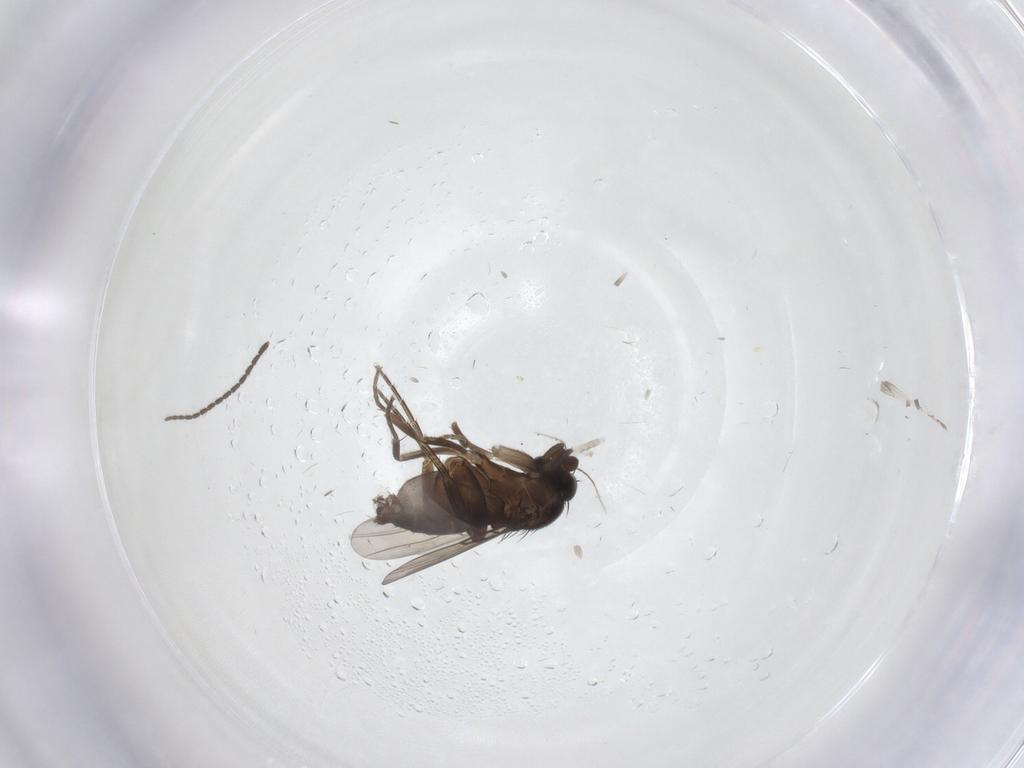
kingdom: Animalia
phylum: Arthropoda
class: Insecta
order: Diptera
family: Phoridae
